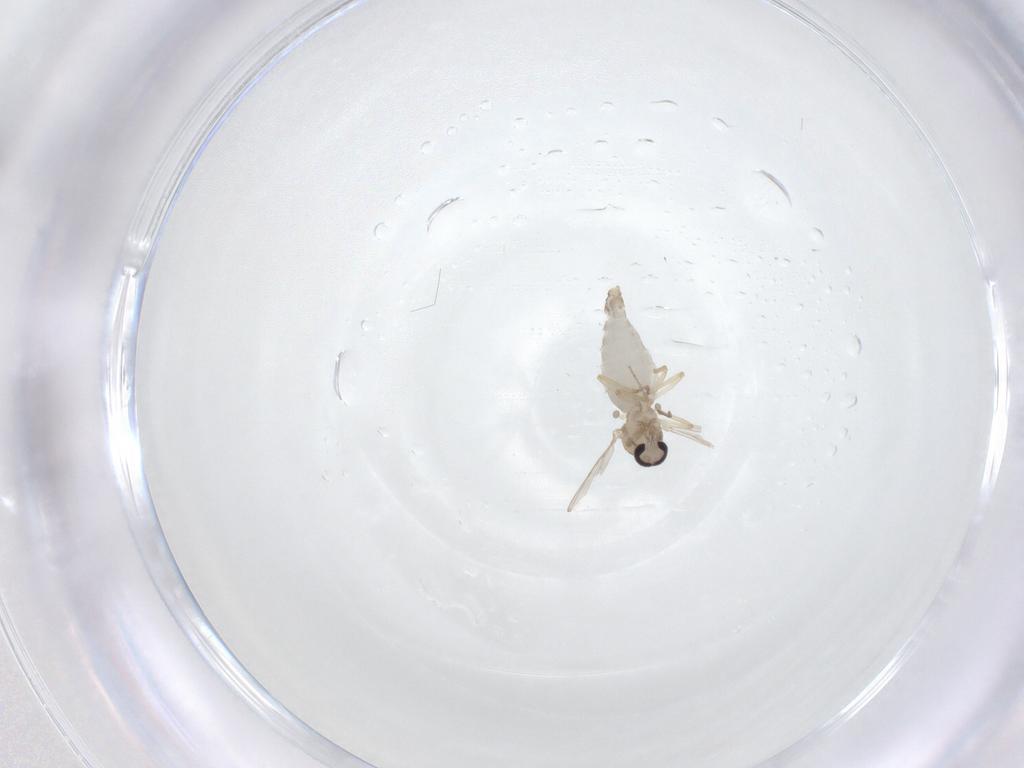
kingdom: Animalia
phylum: Arthropoda
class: Insecta
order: Diptera
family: Ceratopogonidae
